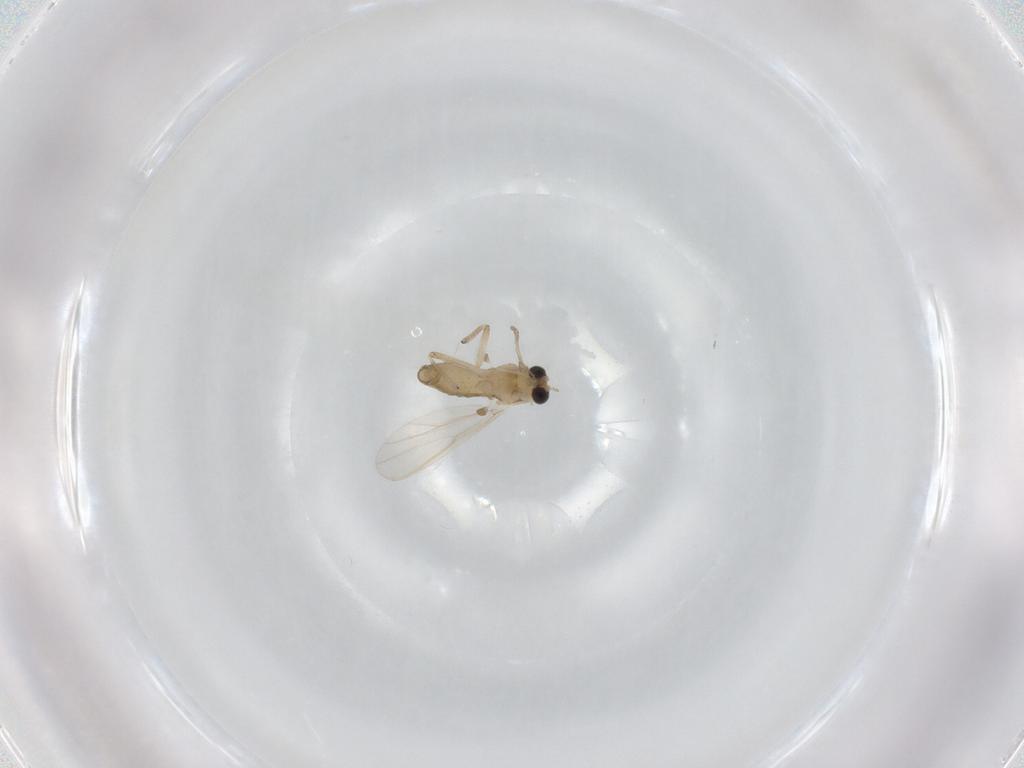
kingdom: Animalia
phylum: Arthropoda
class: Insecta
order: Diptera
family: Chironomidae
